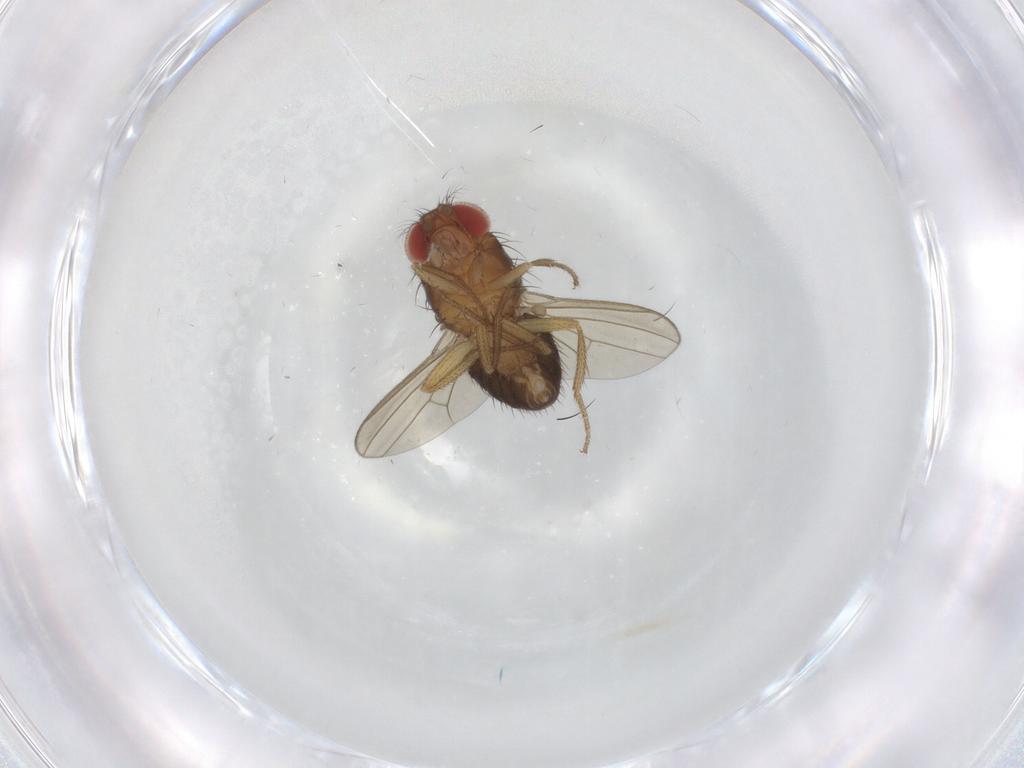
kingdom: Animalia
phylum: Arthropoda
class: Insecta
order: Diptera
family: Drosophilidae
